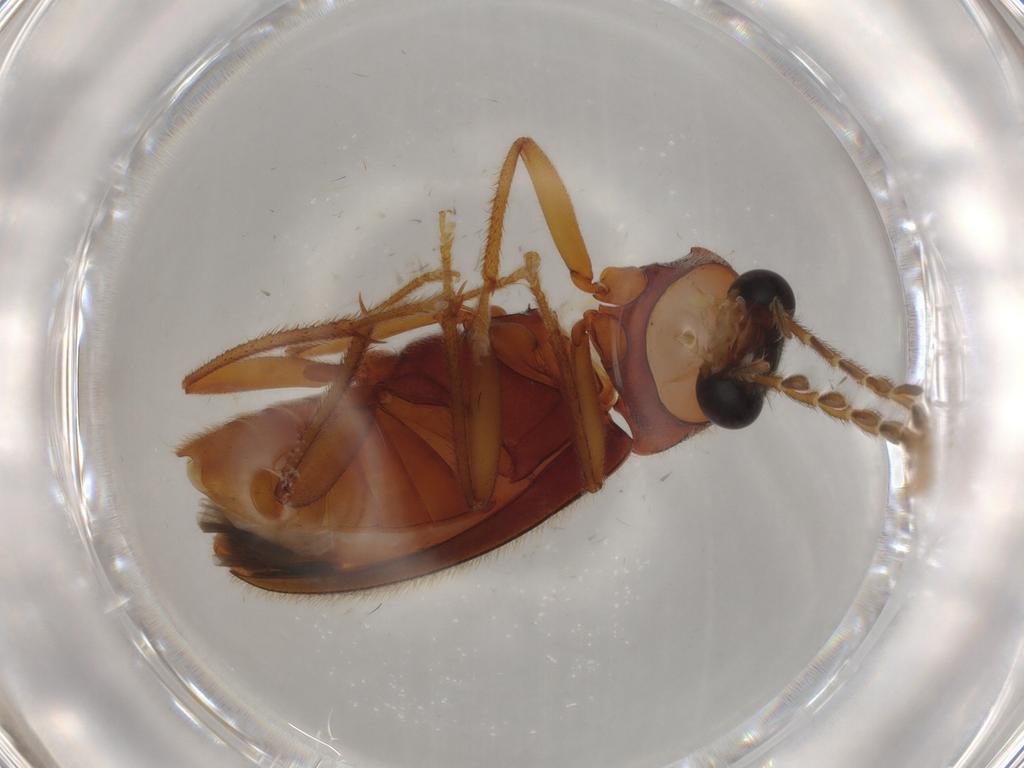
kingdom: Animalia
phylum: Arthropoda
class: Insecta
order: Coleoptera
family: Ptilodactylidae
